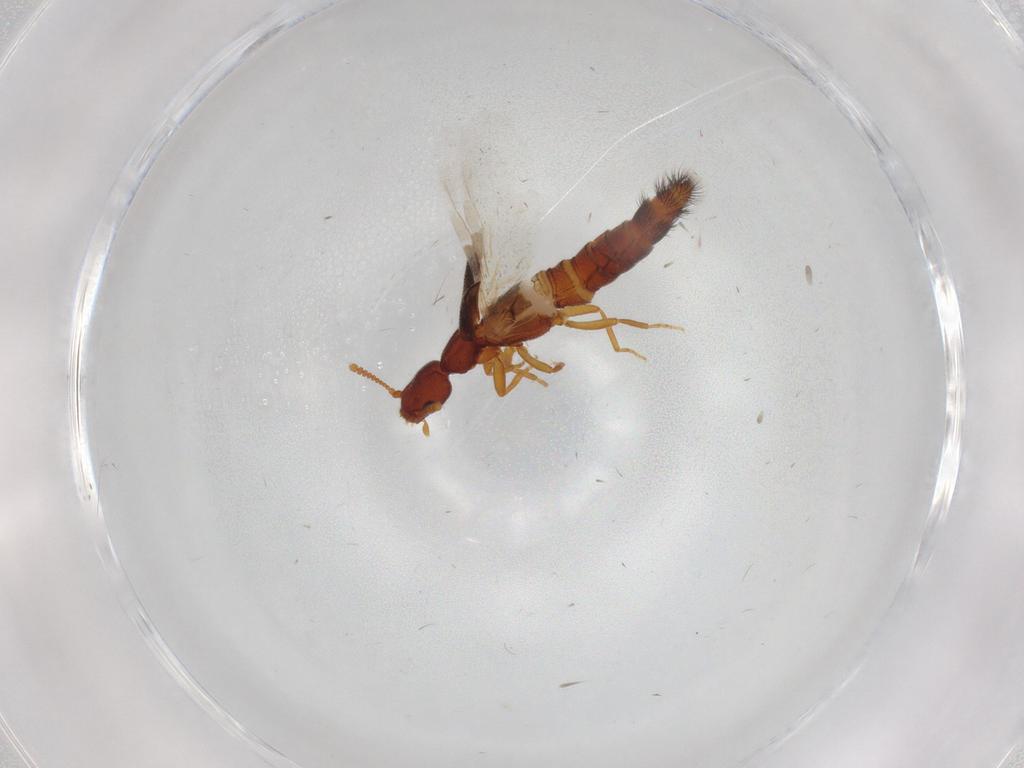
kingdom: Animalia
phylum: Arthropoda
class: Insecta
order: Coleoptera
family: Staphylinidae
